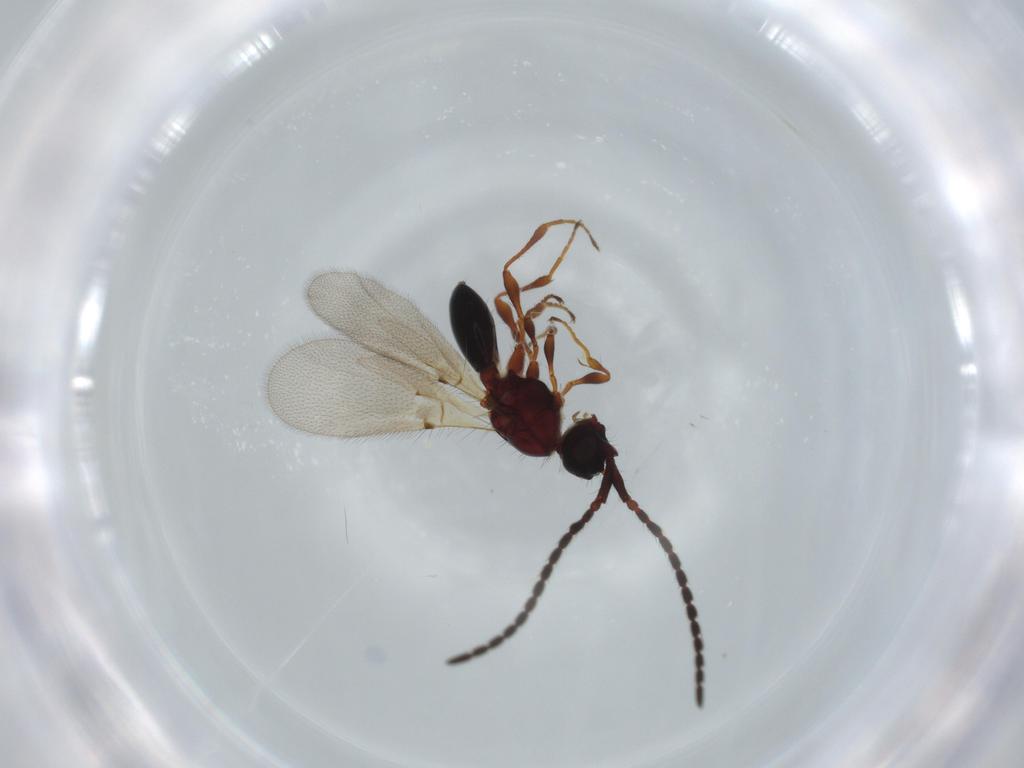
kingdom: Animalia
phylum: Arthropoda
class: Insecta
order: Hymenoptera
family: Diapriidae
